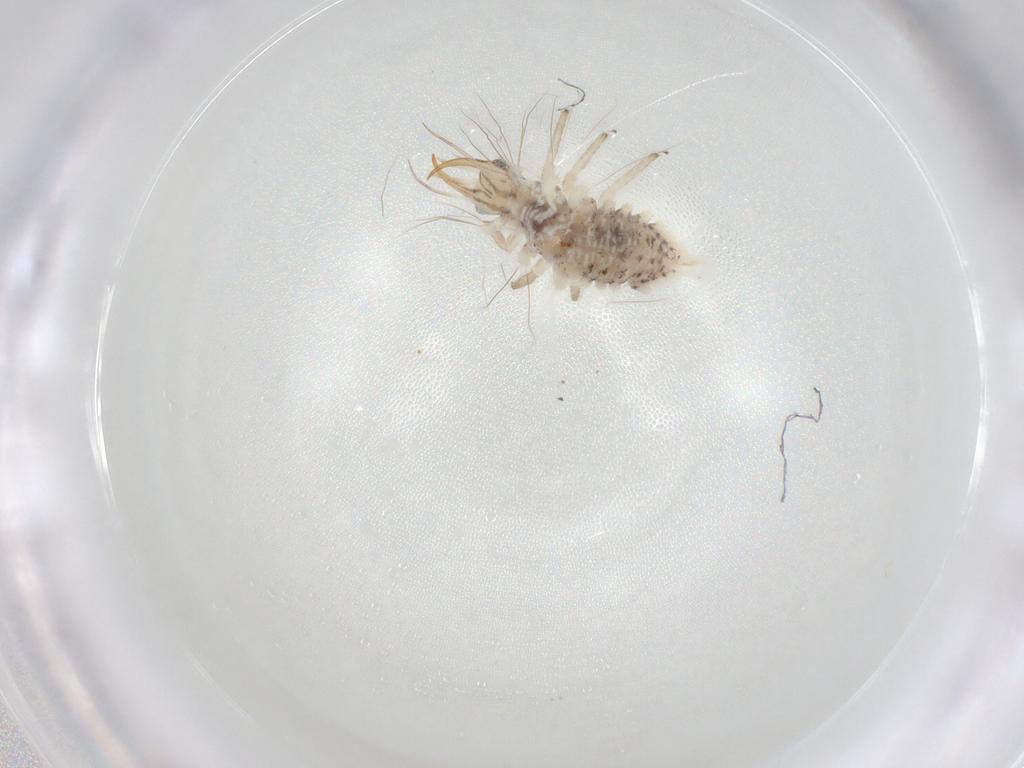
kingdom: Animalia
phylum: Arthropoda
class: Insecta
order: Hymenoptera
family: Eulophidae
